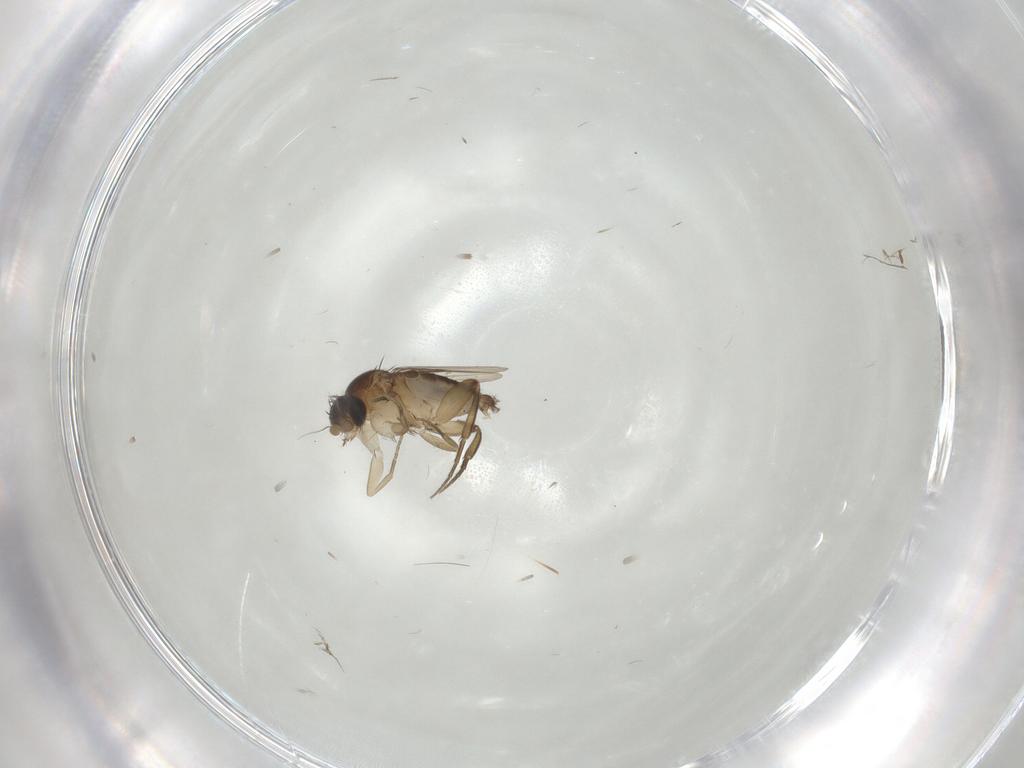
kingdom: Animalia
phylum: Arthropoda
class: Insecta
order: Diptera
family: Phoridae
